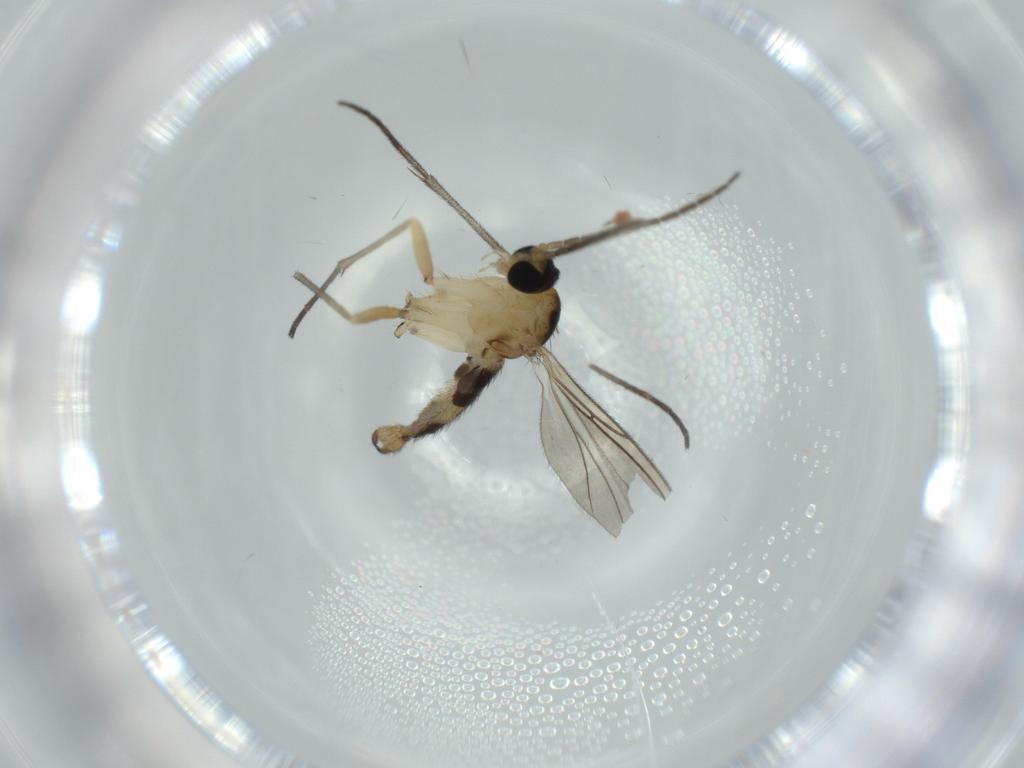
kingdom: Animalia
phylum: Arthropoda
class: Insecta
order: Diptera
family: Sciaridae
